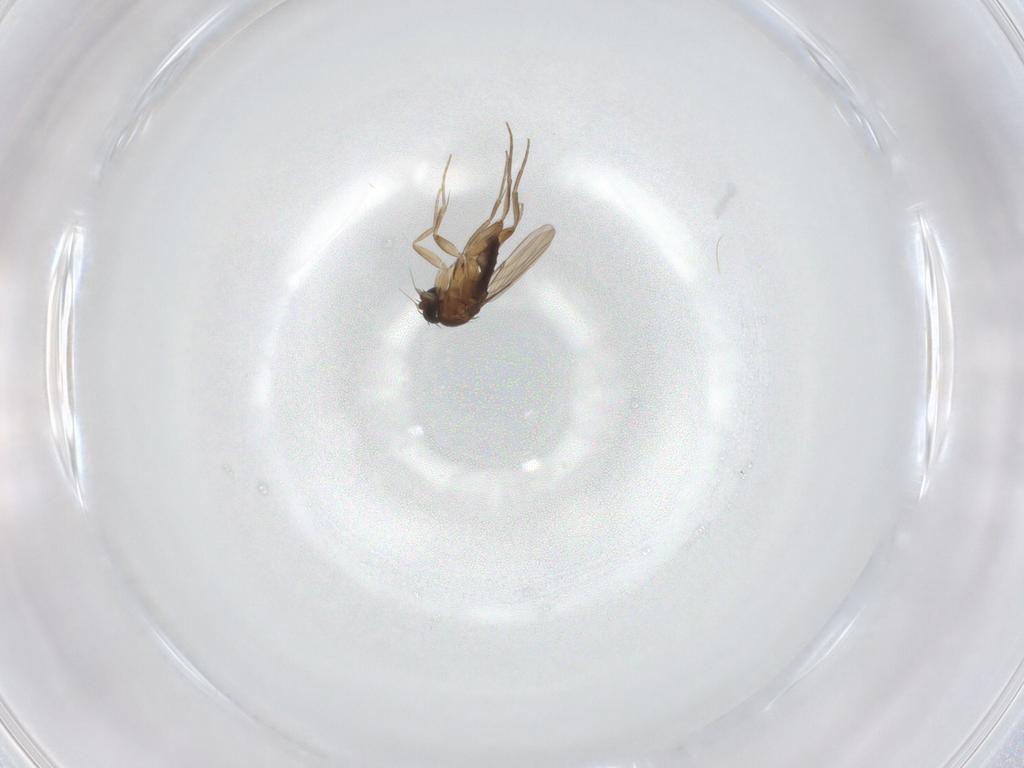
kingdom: Animalia
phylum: Arthropoda
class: Insecta
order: Diptera
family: Phoridae
